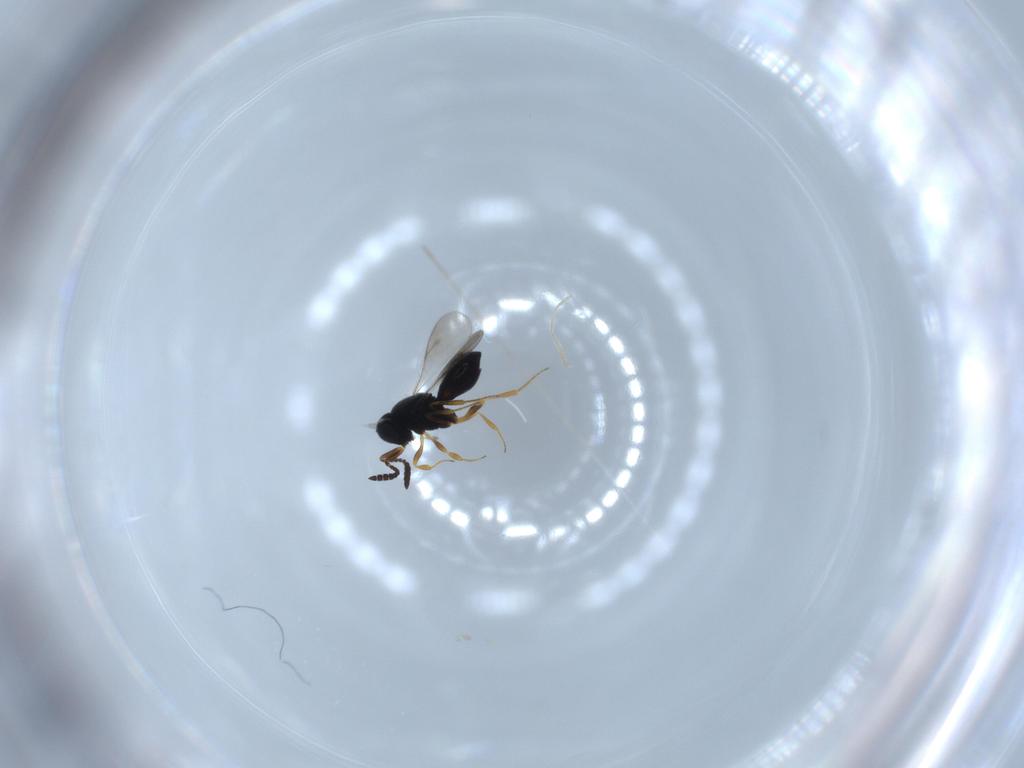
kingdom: Animalia
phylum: Arthropoda
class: Insecta
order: Hymenoptera
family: Scelionidae
